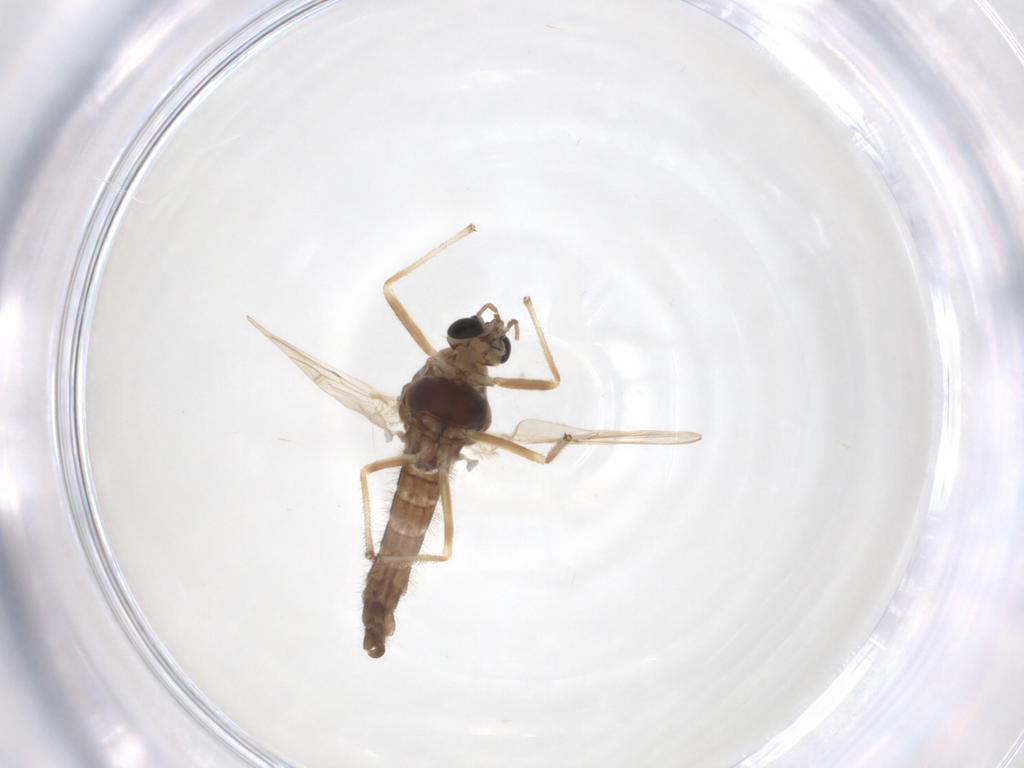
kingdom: Animalia
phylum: Arthropoda
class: Insecta
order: Diptera
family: Chironomidae
